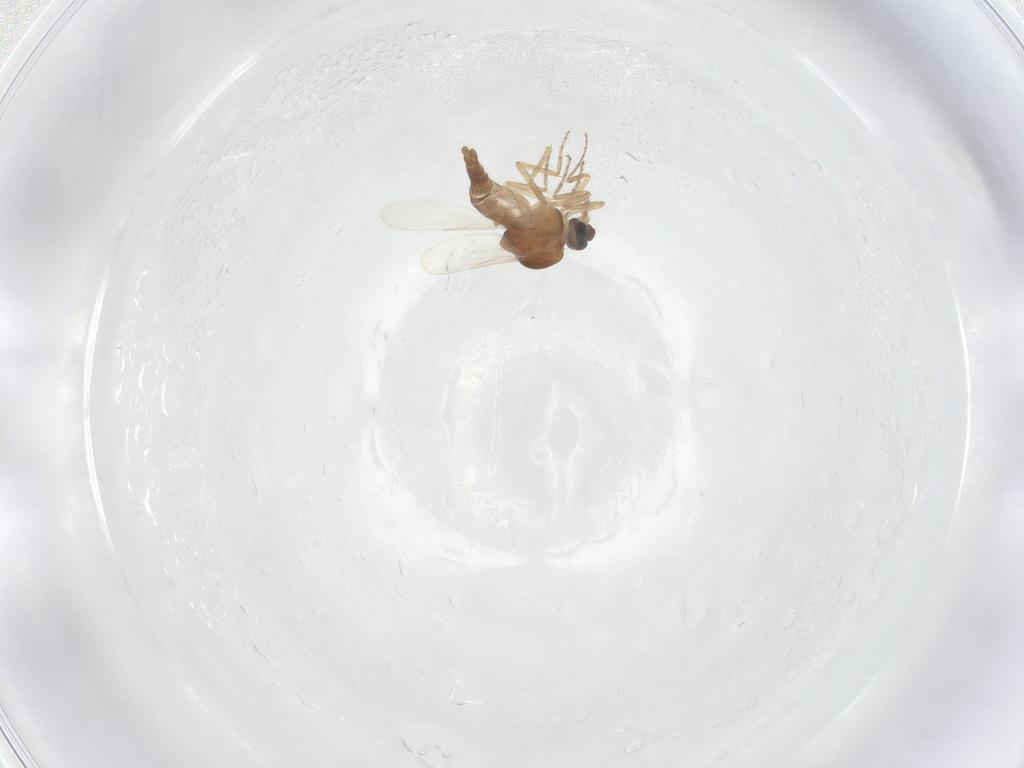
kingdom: Animalia
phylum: Arthropoda
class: Insecta
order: Diptera
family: Ceratopogonidae
